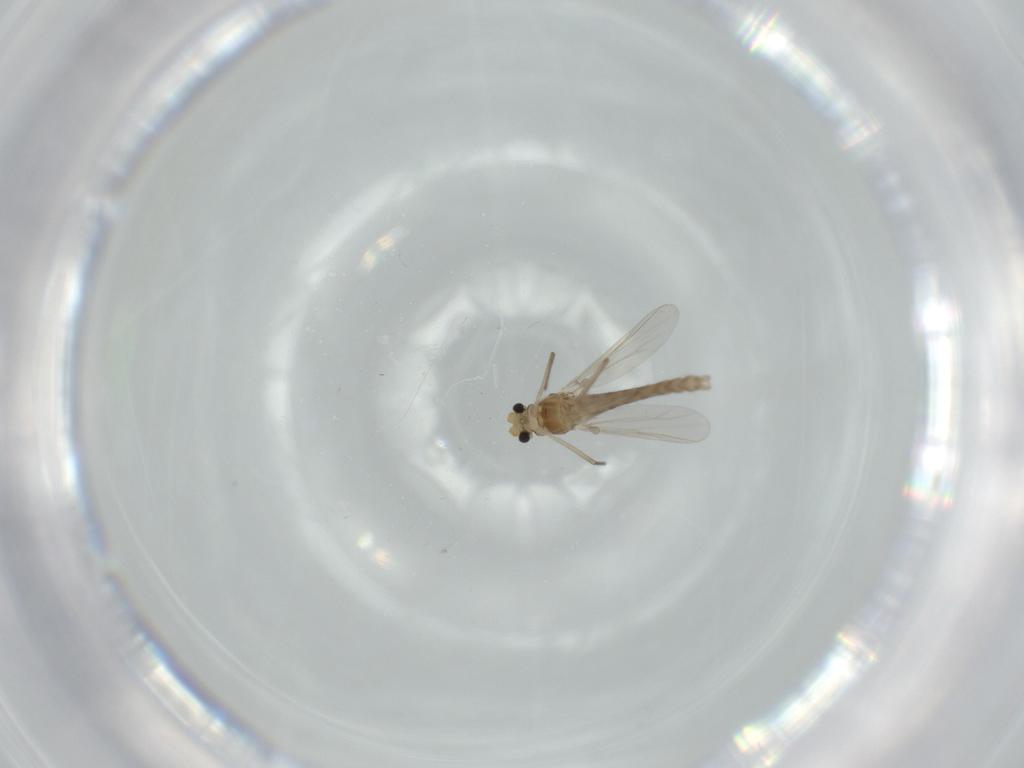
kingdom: Animalia
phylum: Arthropoda
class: Insecta
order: Diptera
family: Chironomidae
